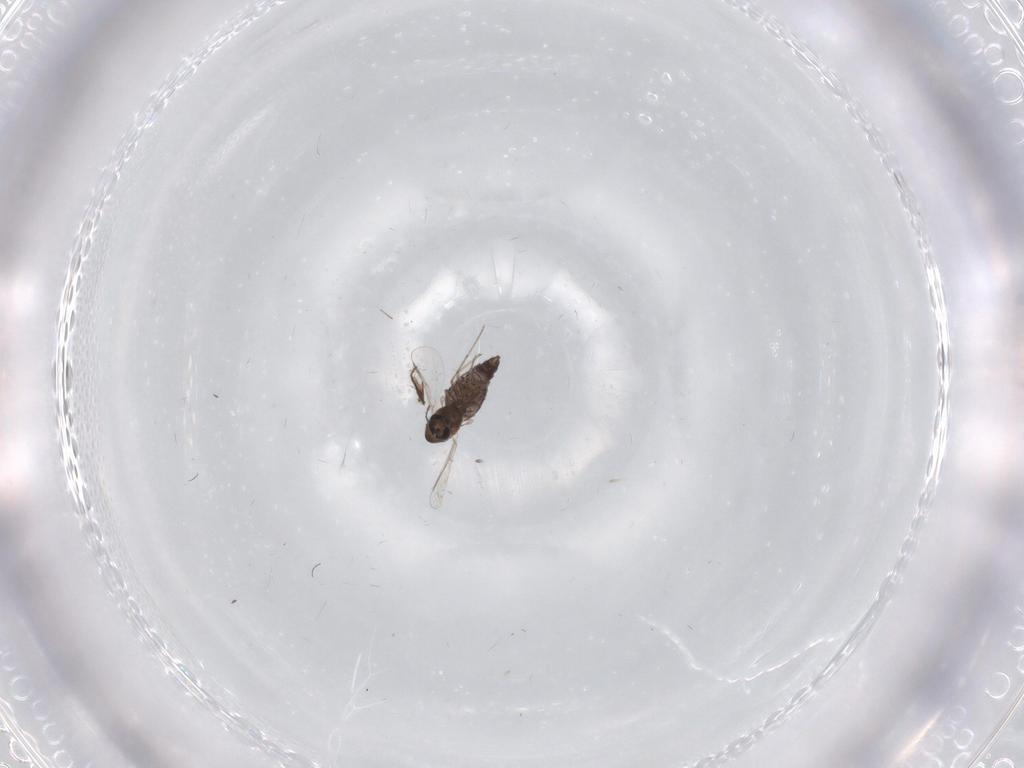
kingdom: Animalia
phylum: Arthropoda
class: Insecta
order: Diptera
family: Chironomidae
